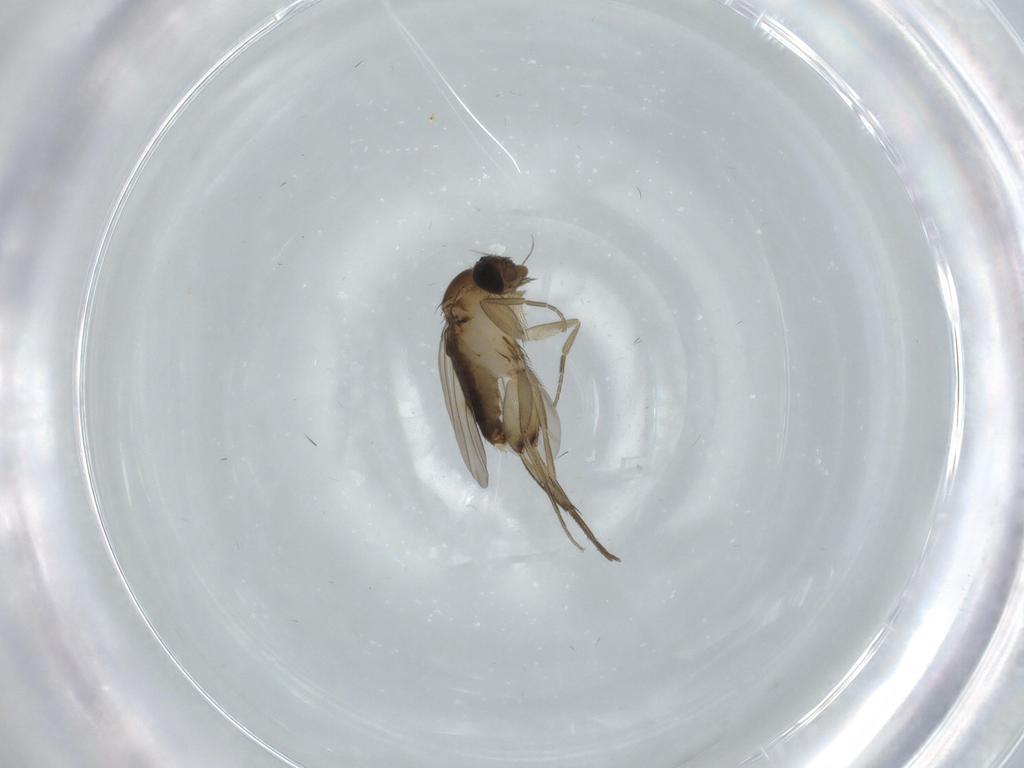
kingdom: Animalia
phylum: Arthropoda
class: Insecta
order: Diptera
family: Phoridae
